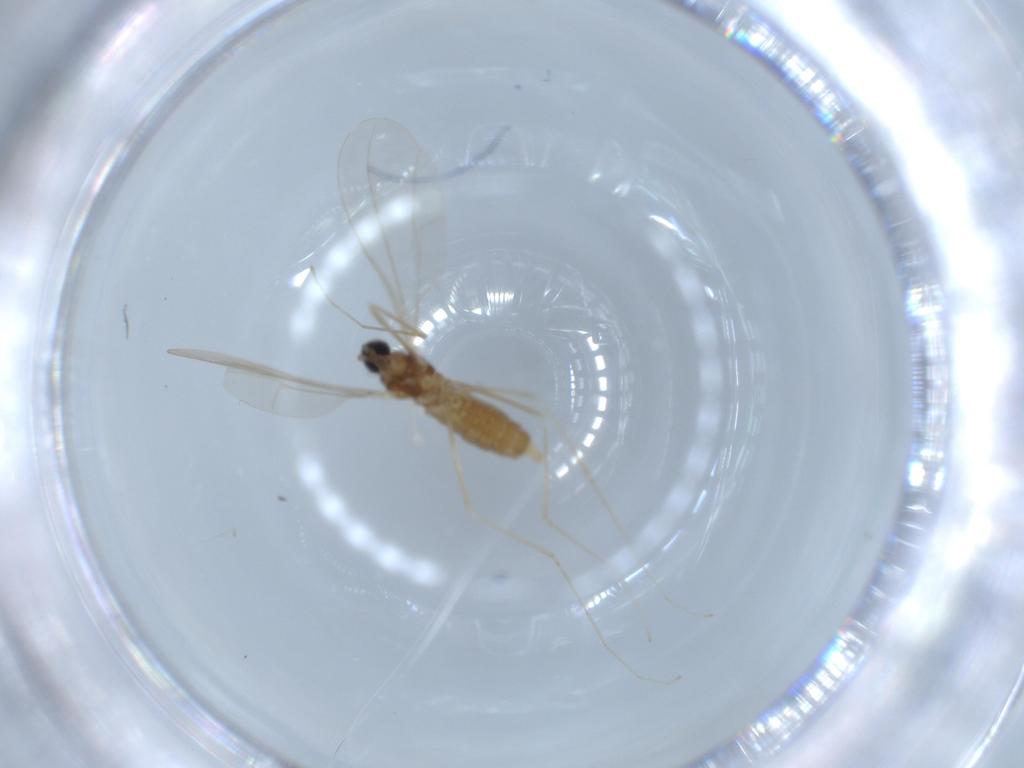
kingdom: Animalia
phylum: Arthropoda
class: Insecta
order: Diptera
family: Cecidomyiidae
